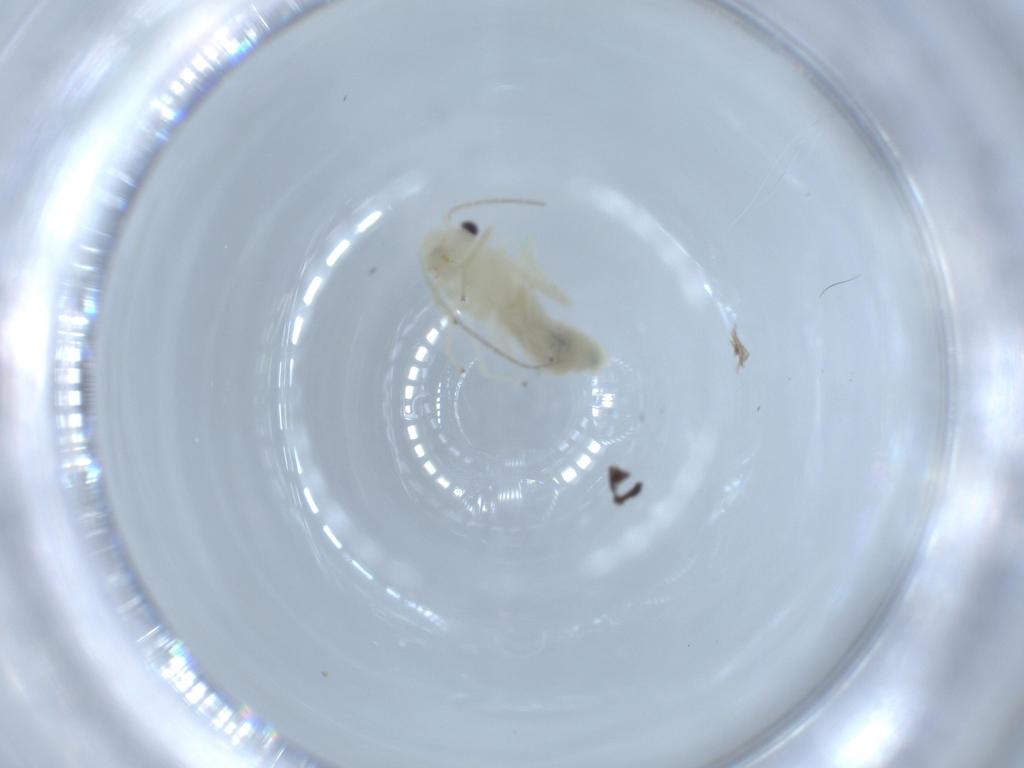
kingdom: Animalia
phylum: Arthropoda
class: Insecta
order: Psocodea
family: Caeciliusidae
